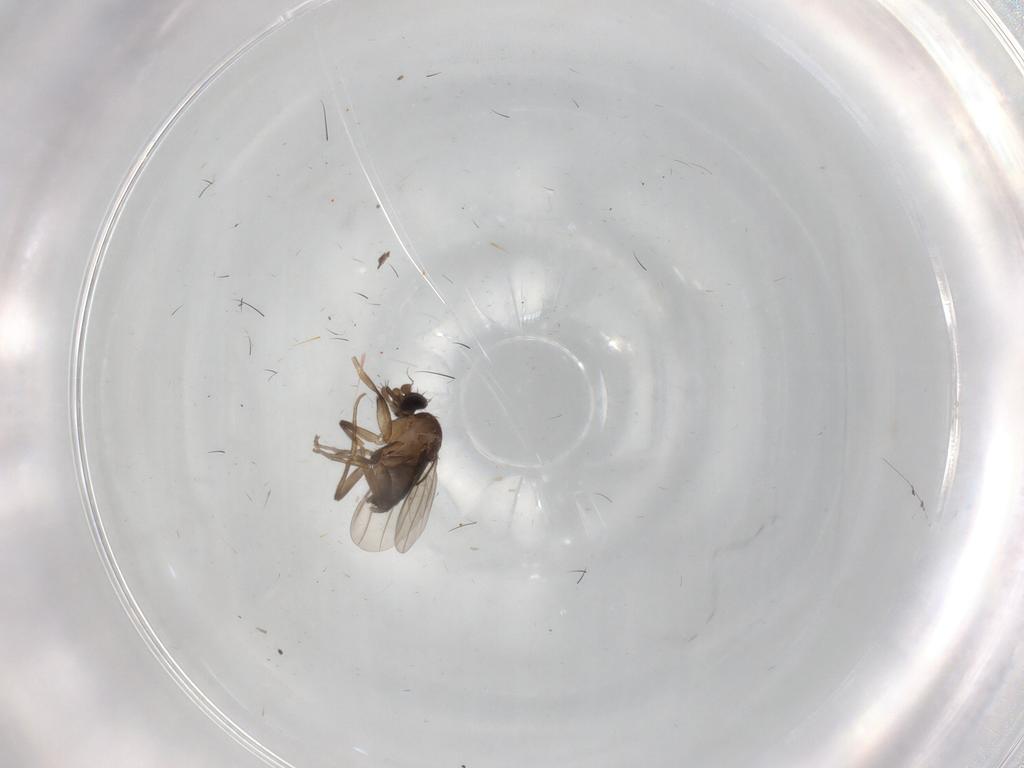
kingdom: Animalia
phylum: Arthropoda
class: Insecta
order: Diptera
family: Phoridae
